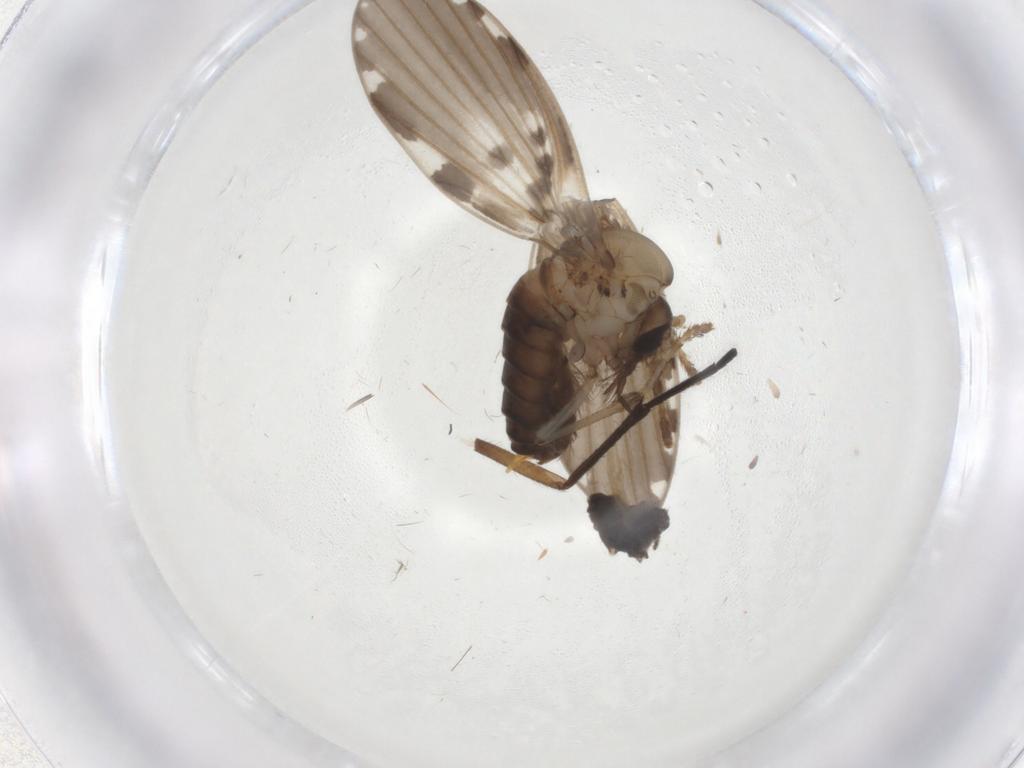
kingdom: Animalia
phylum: Arthropoda
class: Insecta
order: Diptera
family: Psychodidae
